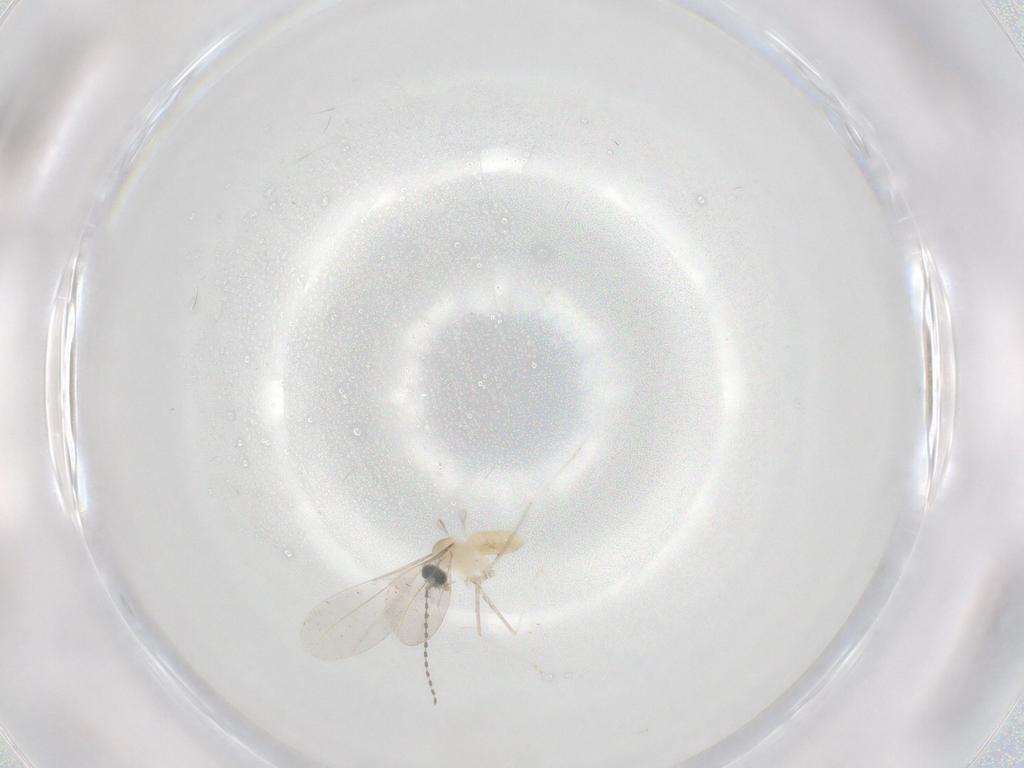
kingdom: Animalia
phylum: Arthropoda
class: Insecta
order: Diptera
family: Cecidomyiidae
